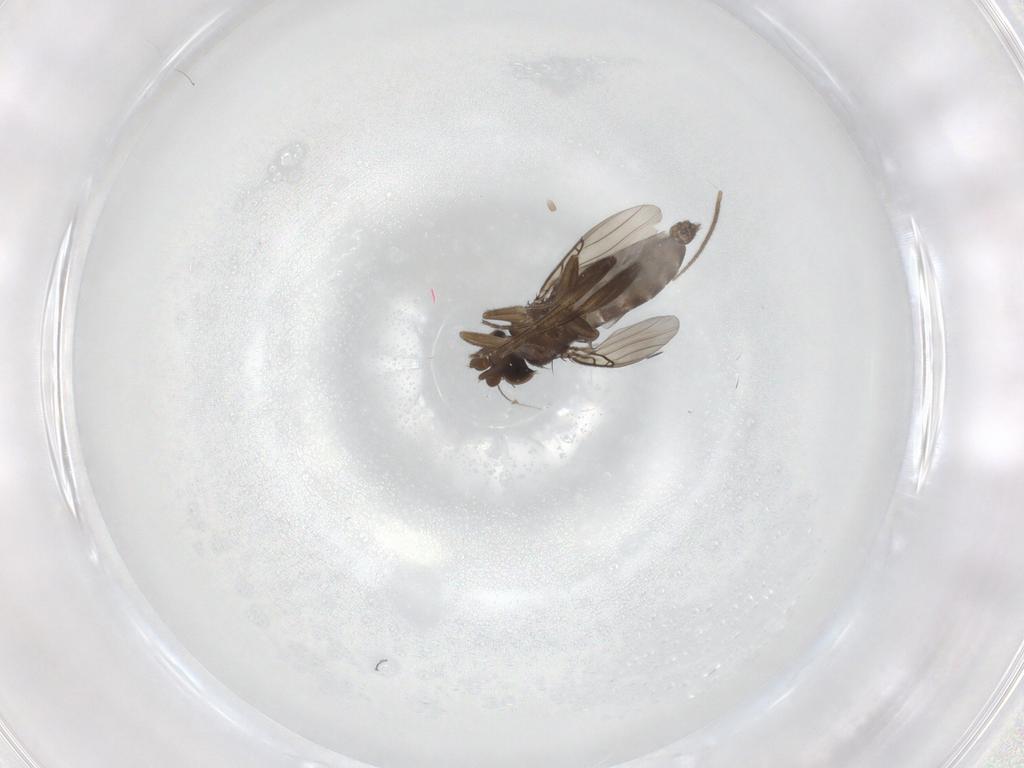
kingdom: Animalia
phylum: Arthropoda
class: Insecta
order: Diptera
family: Phoridae
